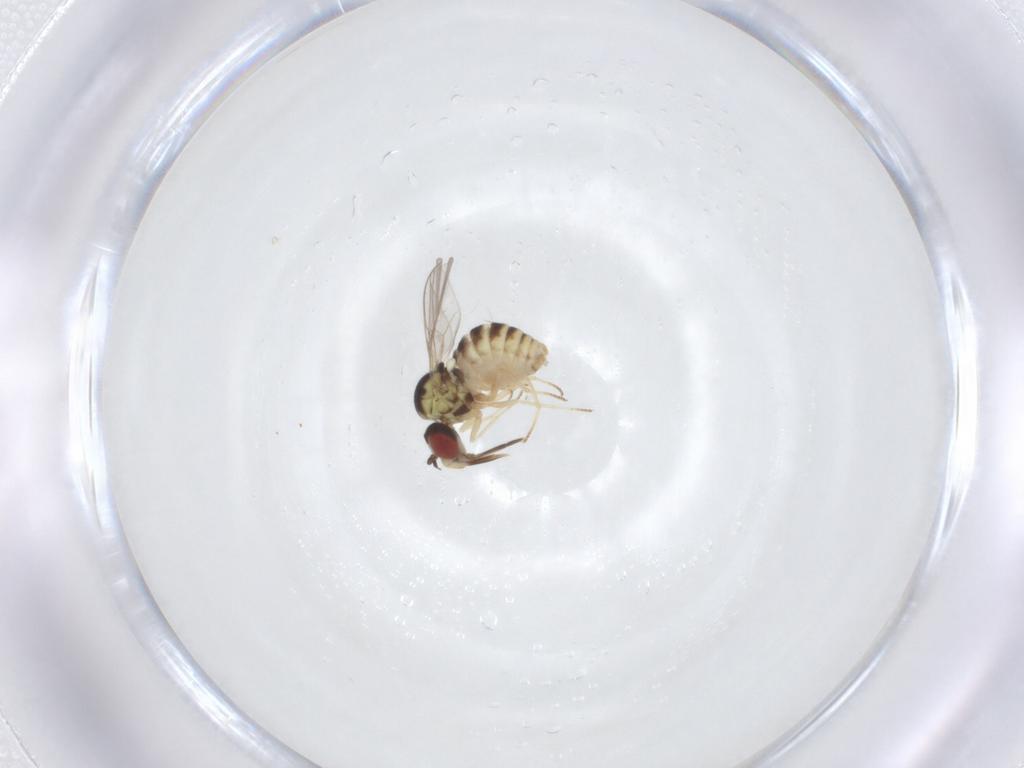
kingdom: Animalia
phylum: Arthropoda
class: Insecta
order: Diptera
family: Bombyliidae
